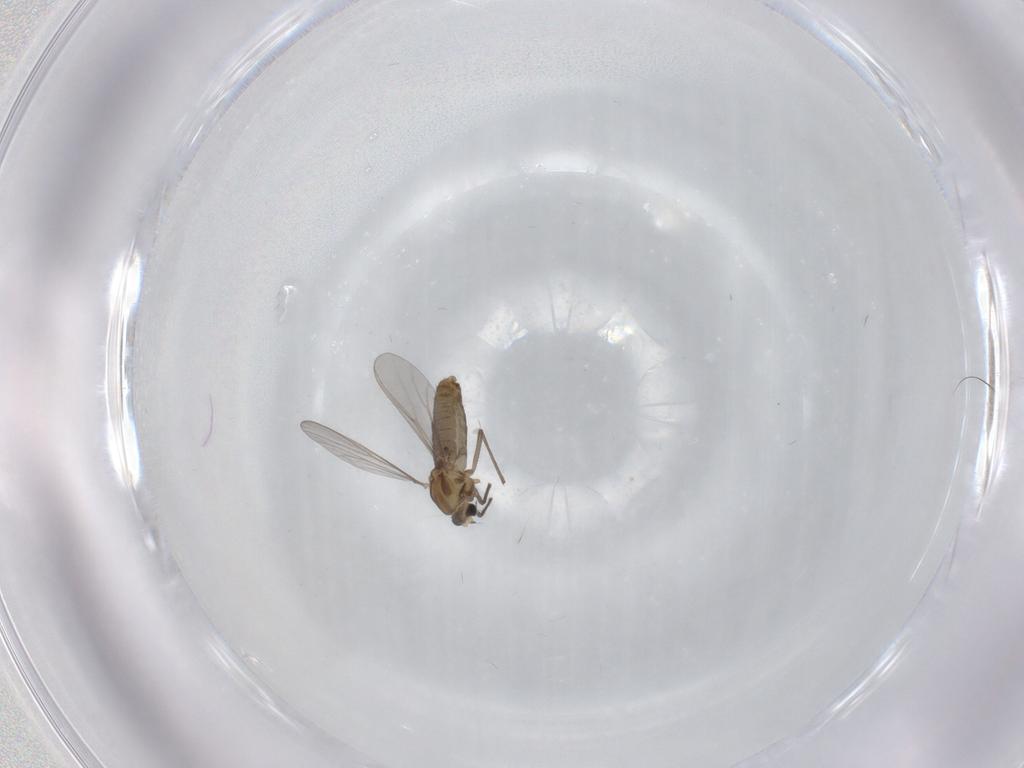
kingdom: Animalia
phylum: Arthropoda
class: Insecta
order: Diptera
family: Chironomidae
